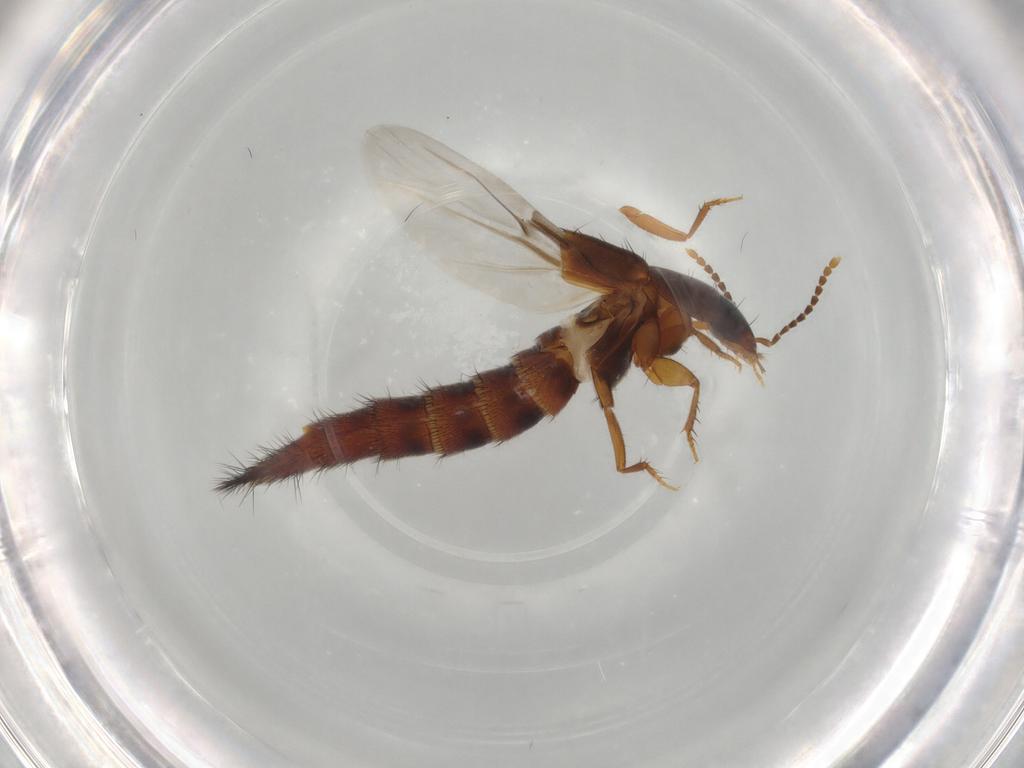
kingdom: Animalia
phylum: Arthropoda
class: Insecta
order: Coleoptera
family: Staphylinidae
